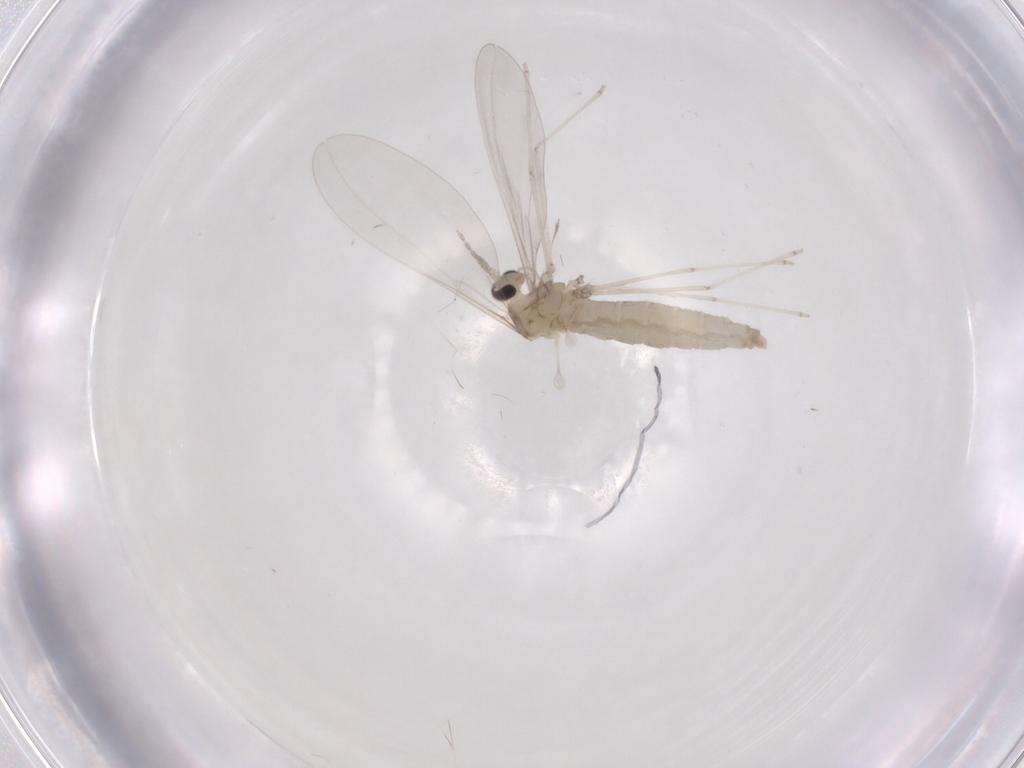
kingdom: Animalia
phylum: Arthropoda
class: Insecta
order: Diptera
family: Cecidomyiidae
